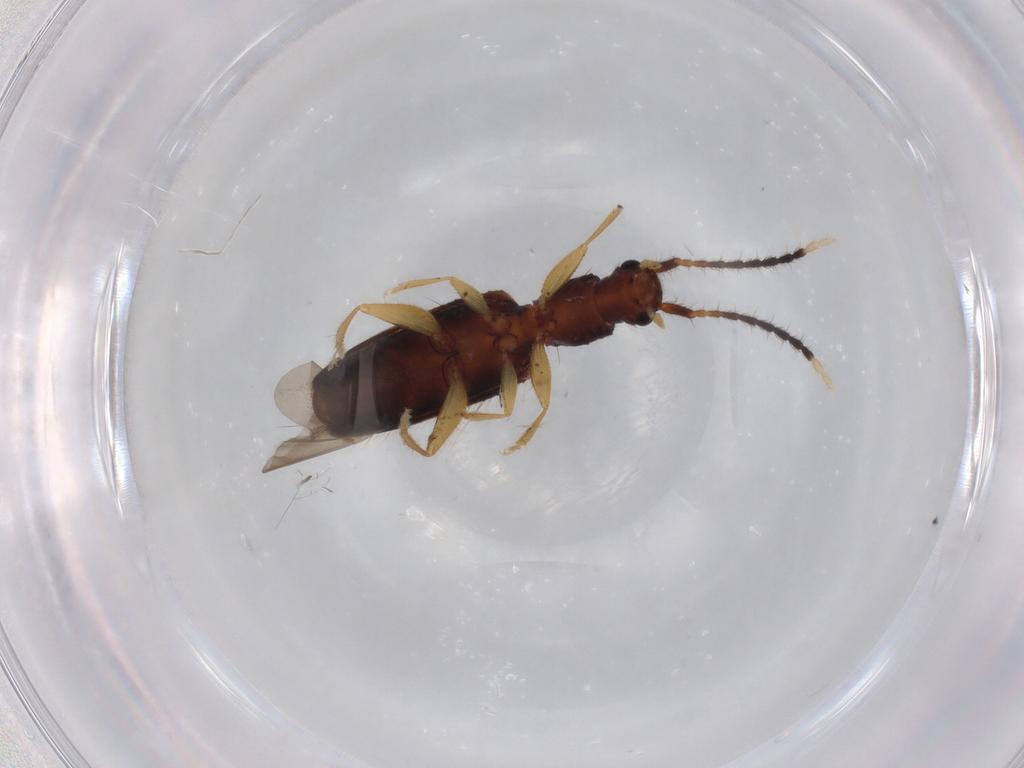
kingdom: Animalia
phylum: Arthropoda
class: Insecta
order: Coleoptera
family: Silvanidae
